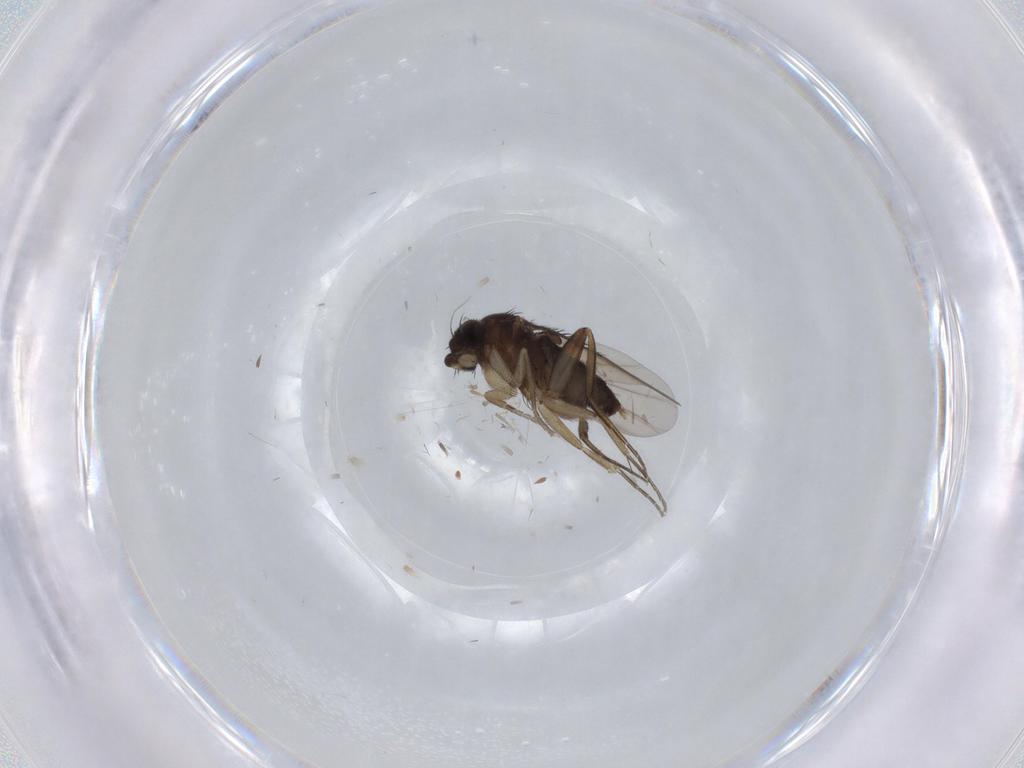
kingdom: Animalia
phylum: Arthropoda
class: Insecta
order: Diptera
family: Phoridae
